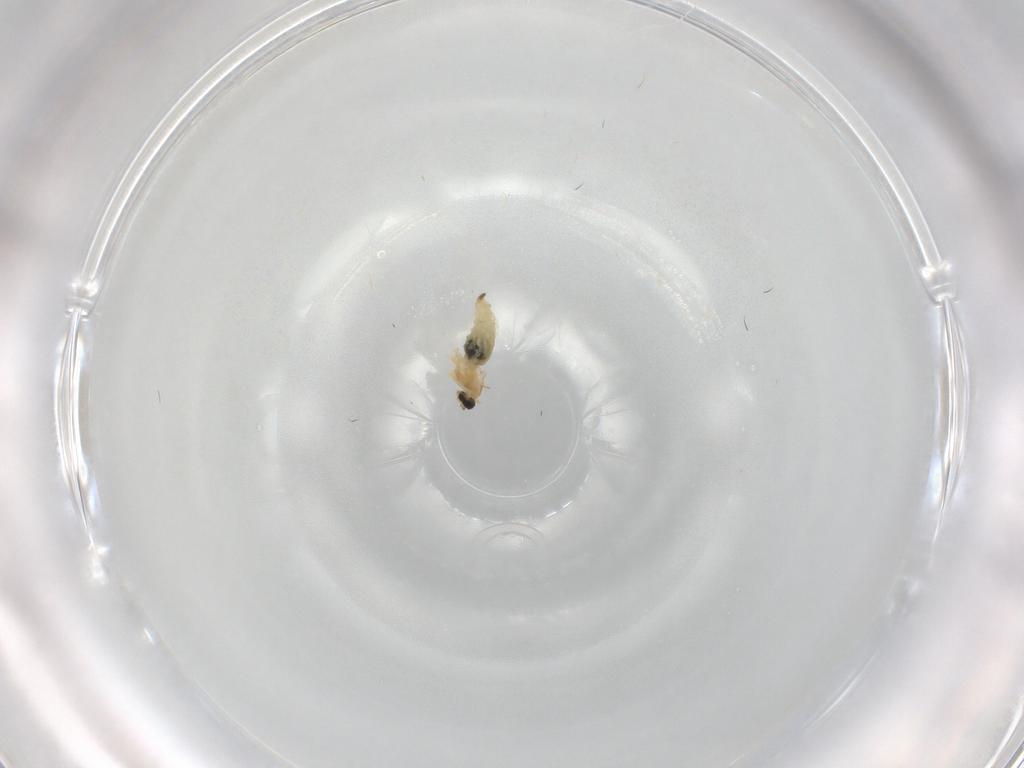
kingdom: Animalia
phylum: Arthropoda
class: Insecta
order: Diptera
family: Cecidomyiidae
